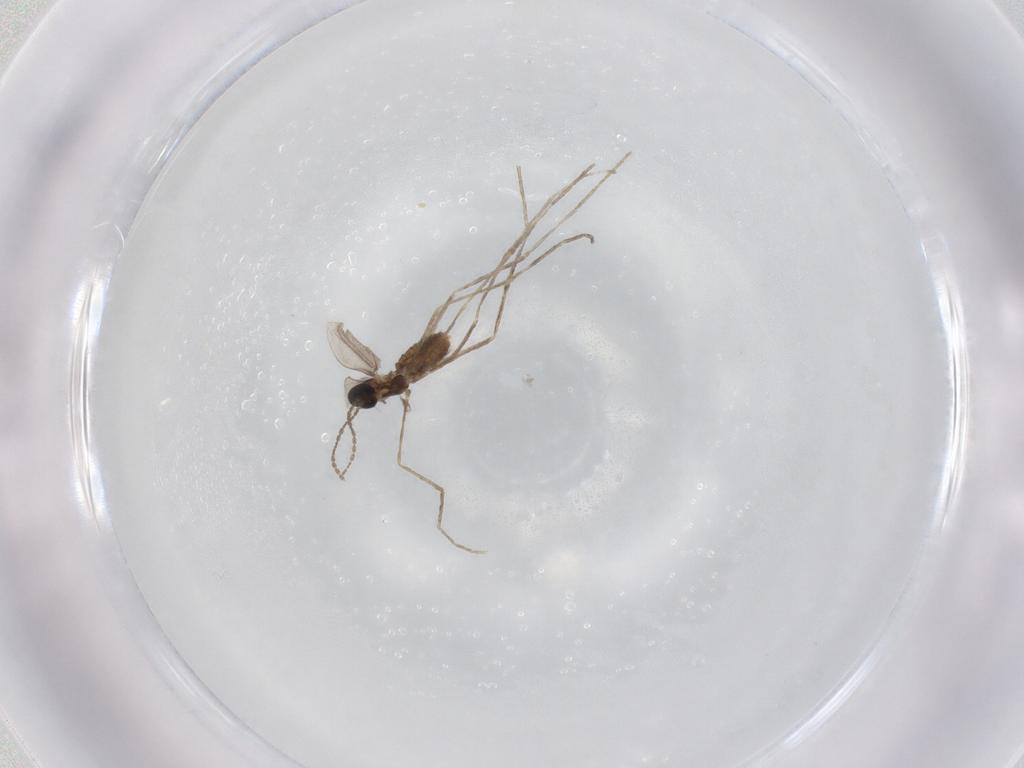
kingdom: Animalia
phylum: Arthropoda
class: Insecta
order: Diptera
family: Cecidomyiidae
